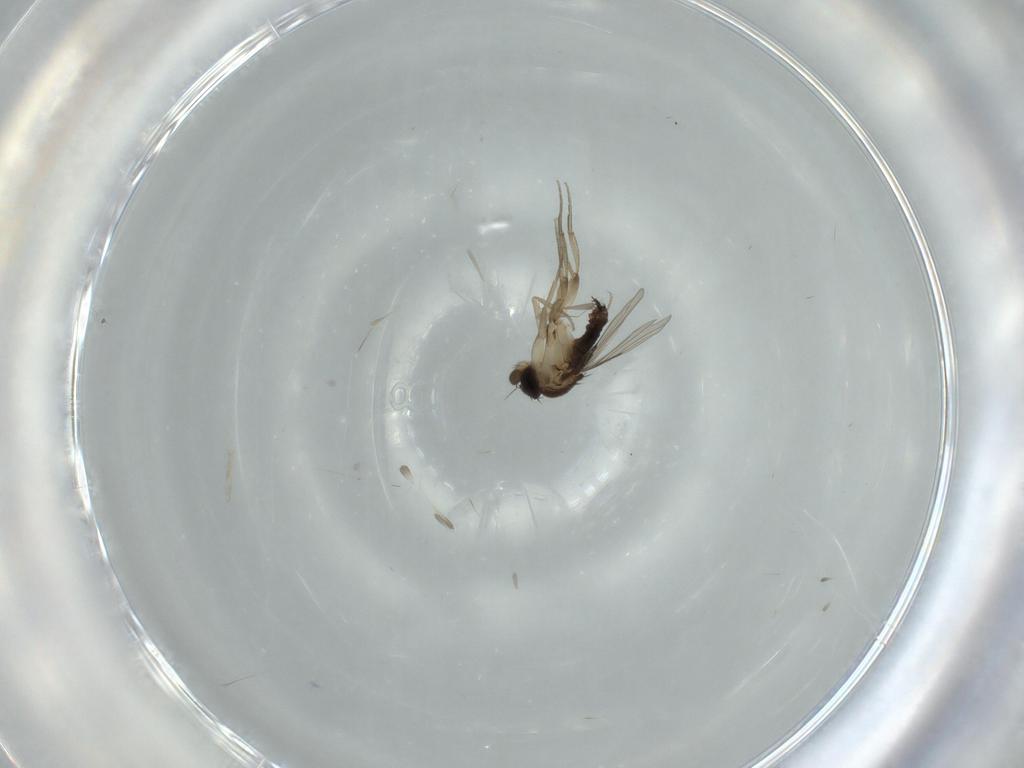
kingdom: Animalia
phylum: Arthropoda
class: Insecta
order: Diptera
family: Phoridae
